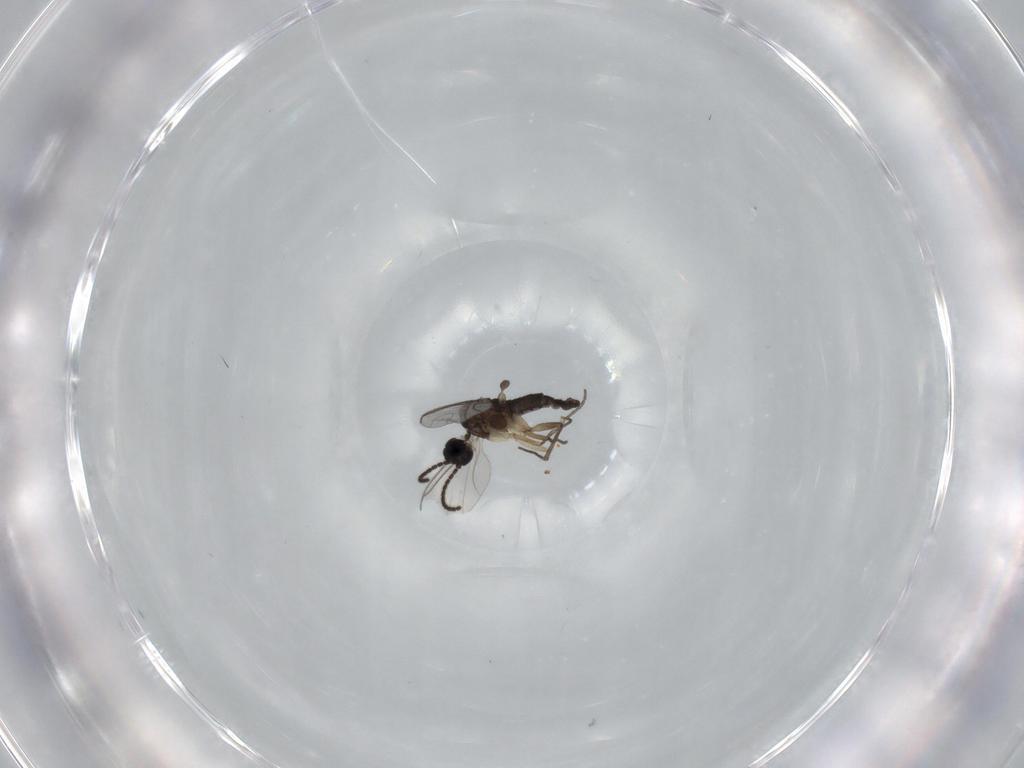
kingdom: Animalia
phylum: Arthropoda
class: Insecta
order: Diptera
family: Sciaridae
